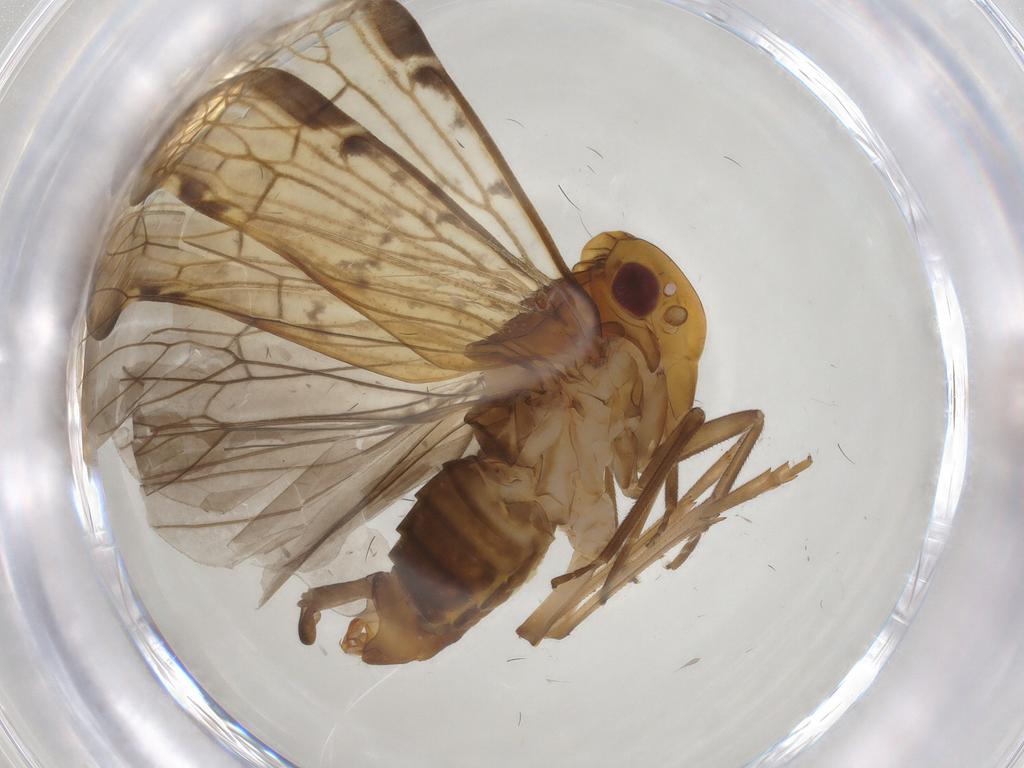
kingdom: Animalia
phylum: Arthropoda
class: Insecta
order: Hemiptera
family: Cixiidae
